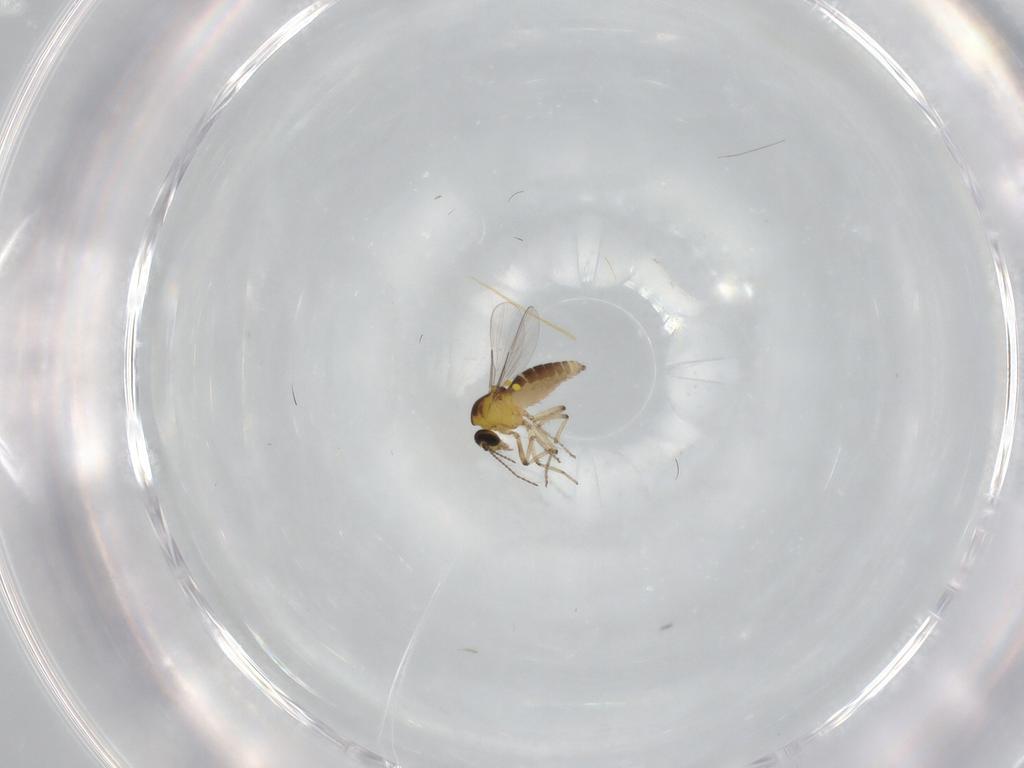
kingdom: Animalia
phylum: Arthropoda
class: Insecta
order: Diptera
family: Ceratopogonidae
